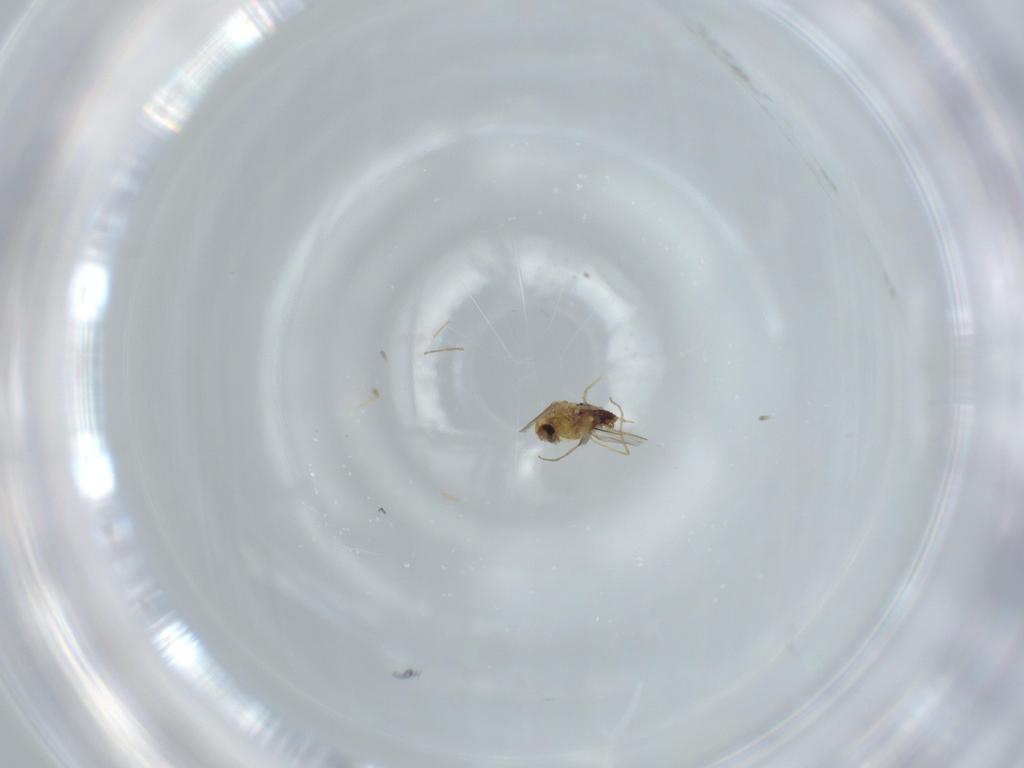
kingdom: Animalia
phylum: Arthropoda
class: Insecta
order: Diptera
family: Chironomidae
